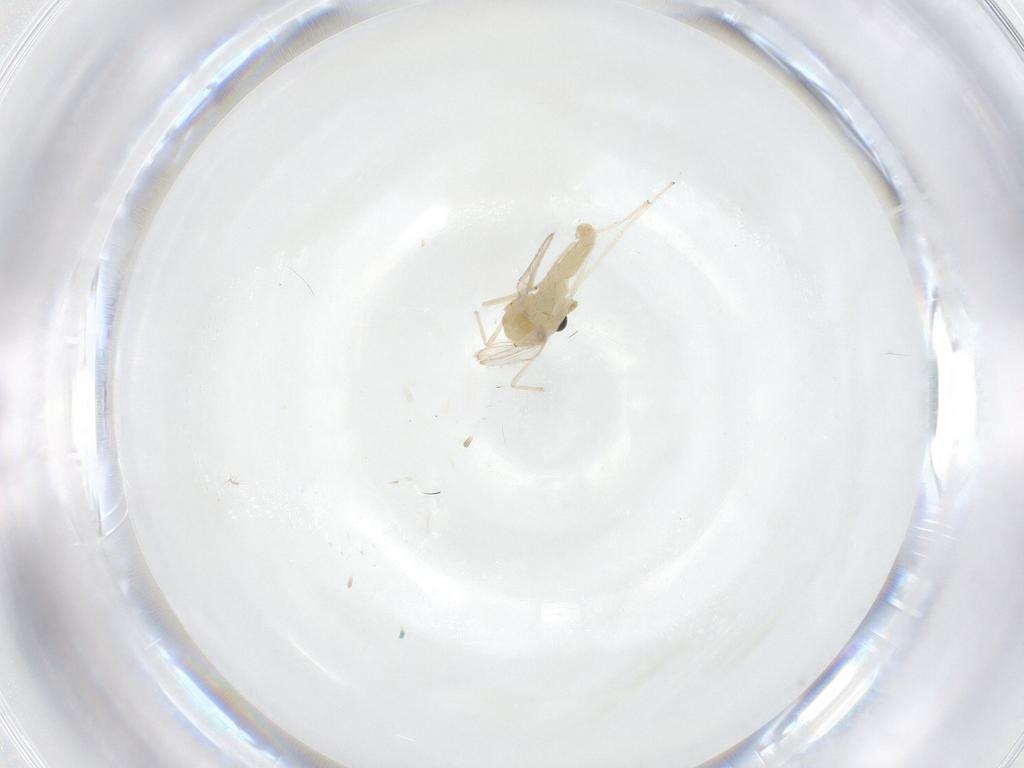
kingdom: Animalia
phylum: Arthropoda
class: Insecta
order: Diptera
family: Chironomidae
